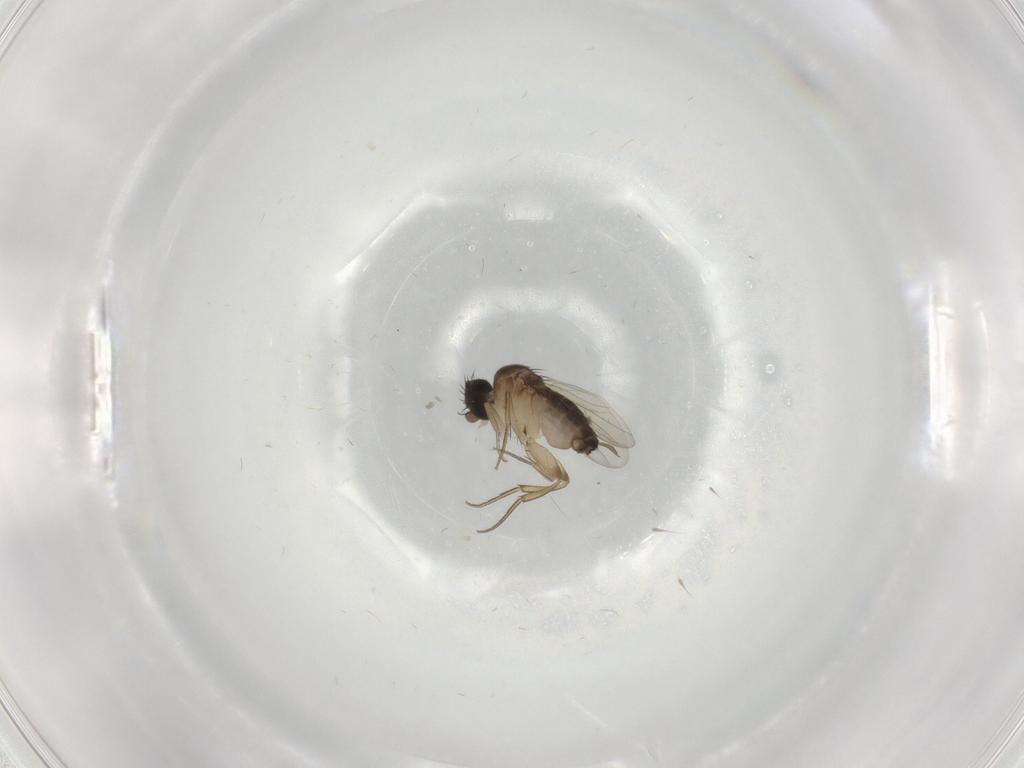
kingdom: Animalia
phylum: Arthropoda
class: Insecta
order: Diptera
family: Phoridae
